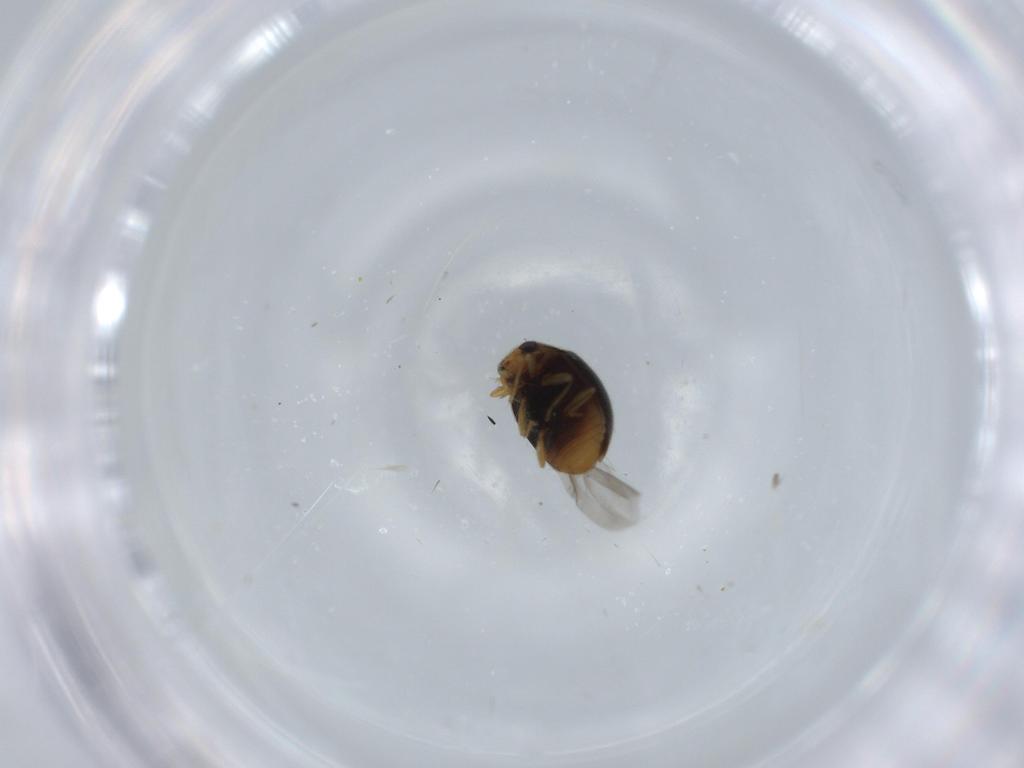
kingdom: Animalia
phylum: Arthropoda
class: Insecta
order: Coleoptera
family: Coccinellidae
